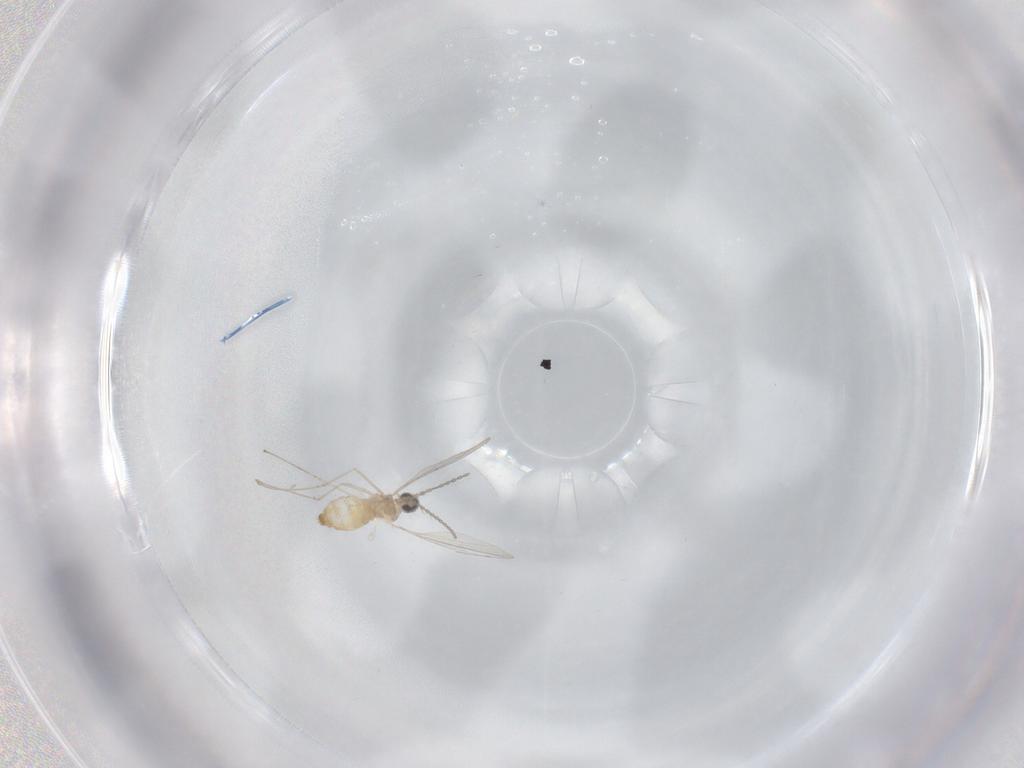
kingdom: Animalia
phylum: Arthropoda
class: Insecta
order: Diptera
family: Sphaeroceridae
